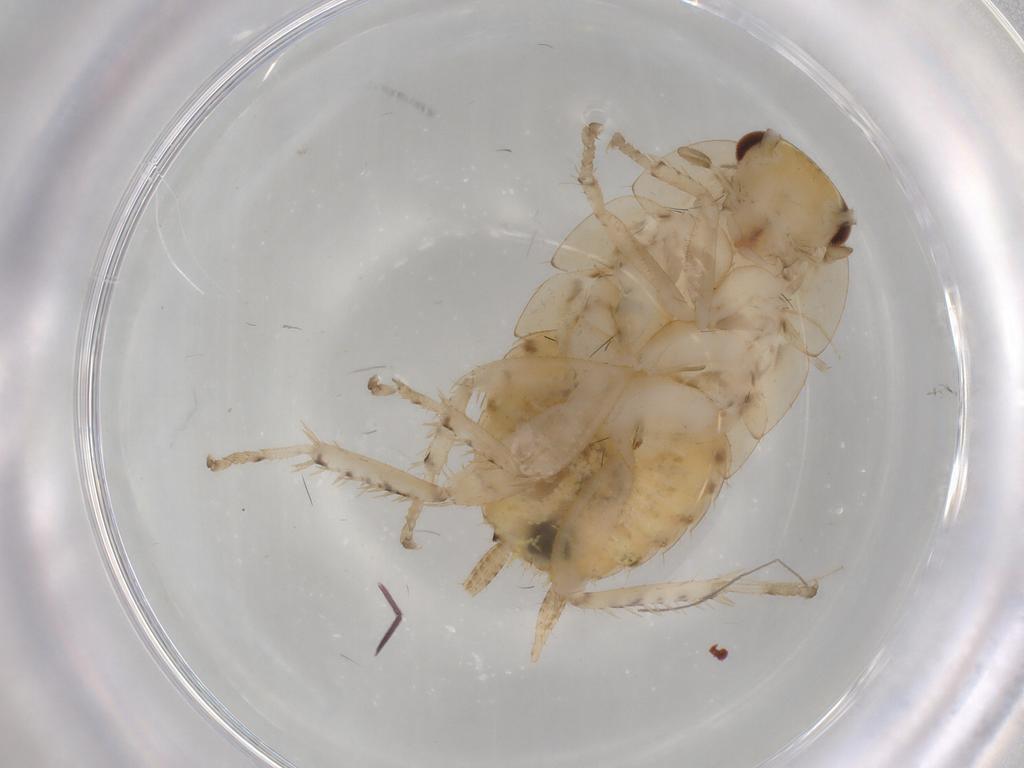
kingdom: Animalia
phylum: Arthropoda
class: Insecta
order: Blattodea
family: Ectobiidae
